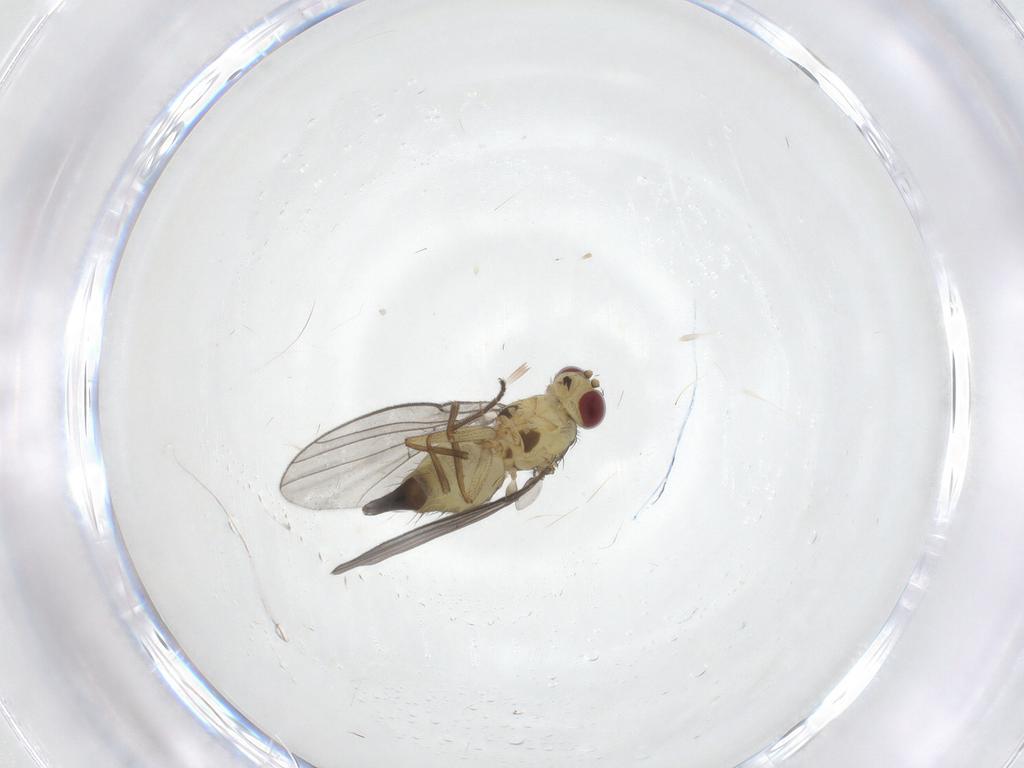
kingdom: Animalia
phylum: Arthropoda
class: Insecta
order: Diptera
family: Agromyzidae
